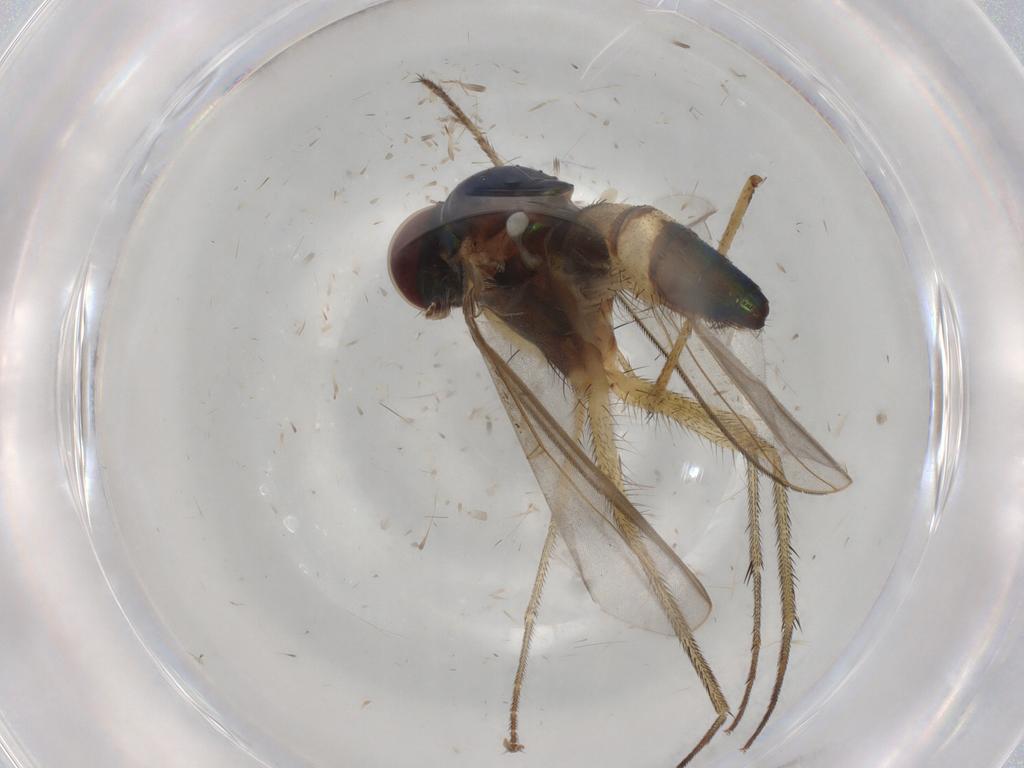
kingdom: Animalia
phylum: Arthropoda
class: Insecta
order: Diptera
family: Dolichopodidae
